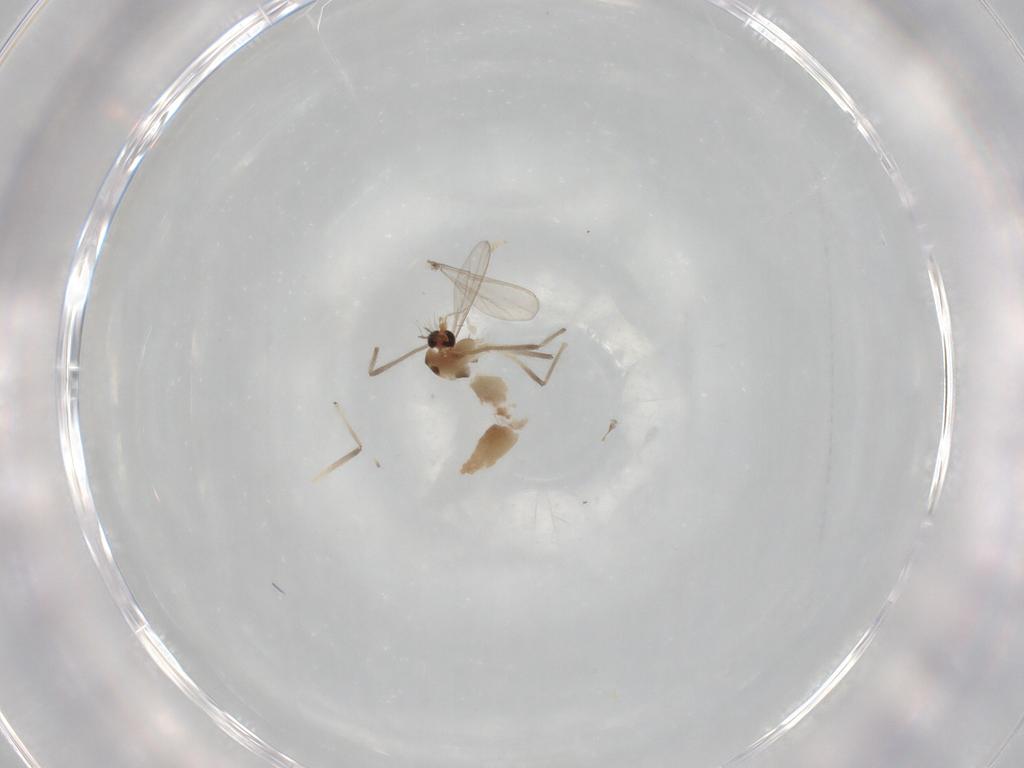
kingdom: Animalia
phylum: Arthropoda
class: Insecta
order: Diptera
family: Chironomidae
